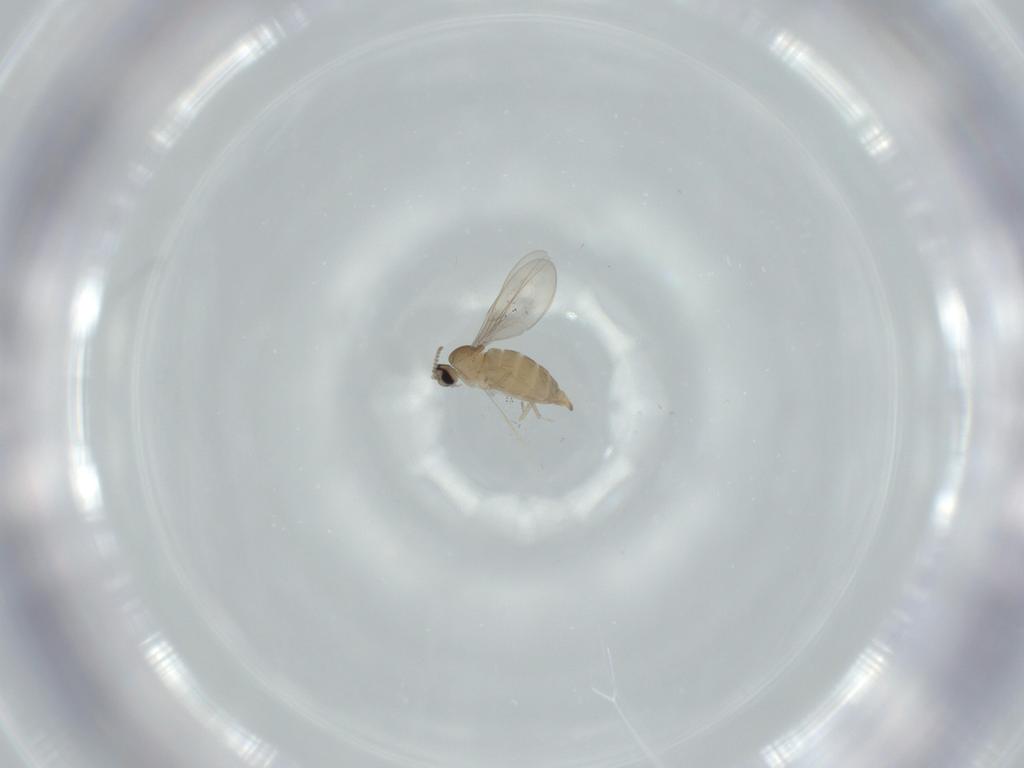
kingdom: Animalia
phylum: Arthropoda
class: Insecta
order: Diptera
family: Cecidomyiidae
